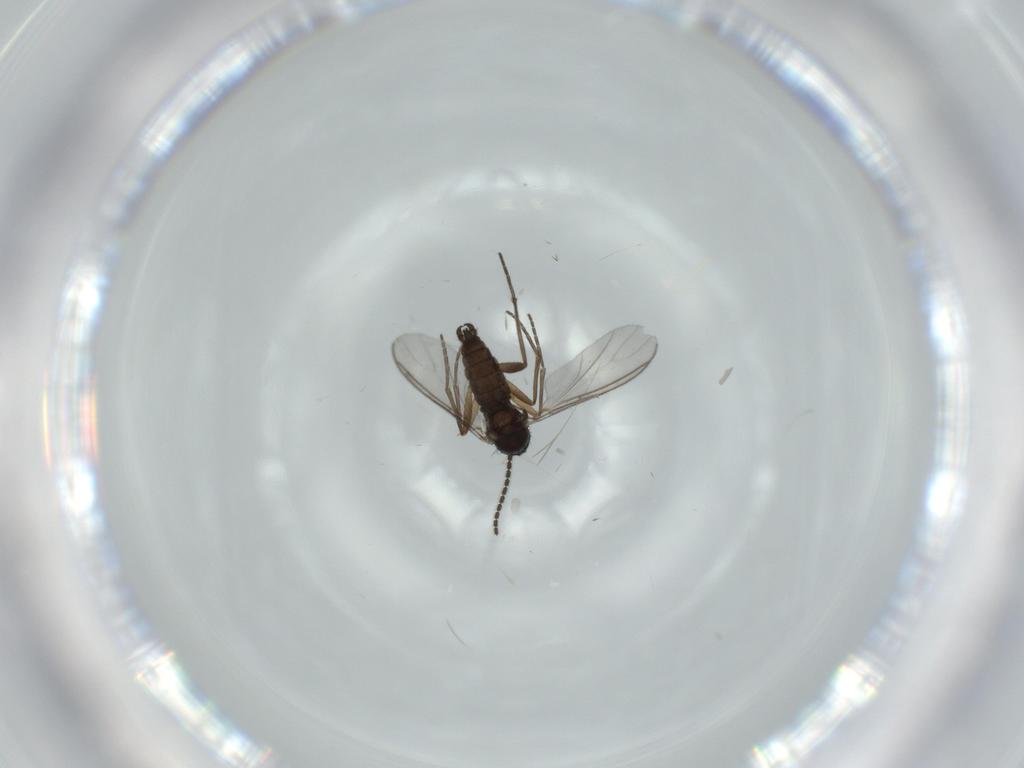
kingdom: Animalia
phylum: Arthropoda
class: Insecta
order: Diptera
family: Sciaridae
